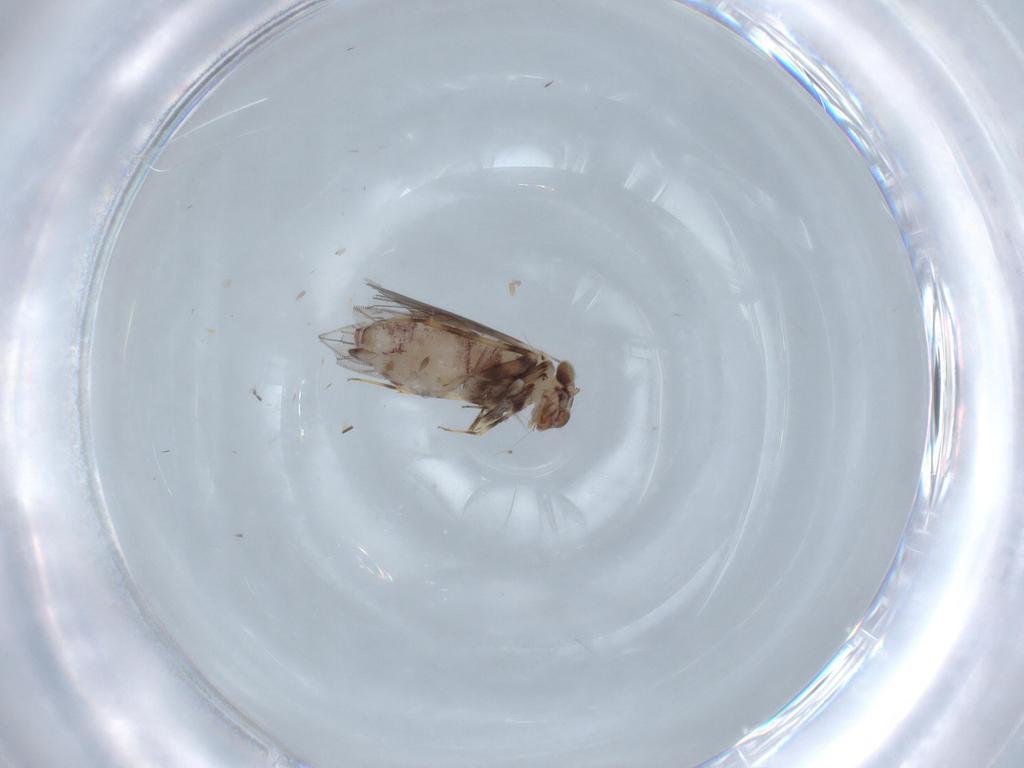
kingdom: Animalia
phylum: Arthropoda
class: Insecta
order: Psocodea
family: Lepidopsocidae
